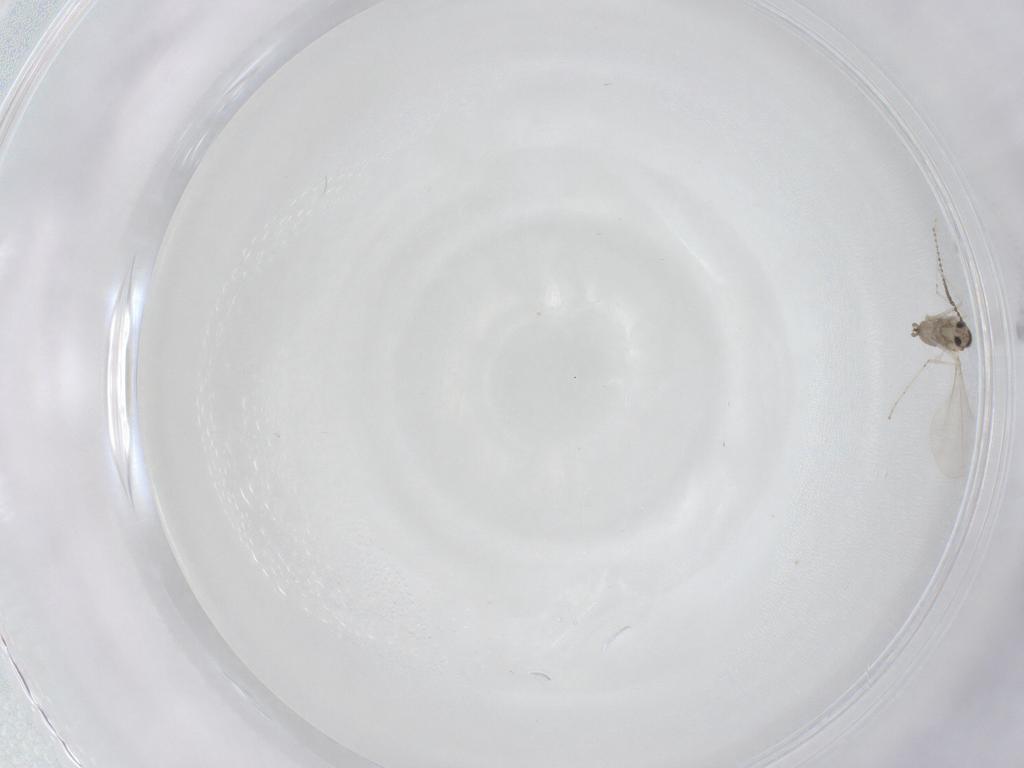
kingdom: Animalia
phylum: Arthropoda
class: Insecta
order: Diptera
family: Cecidomyiidae
